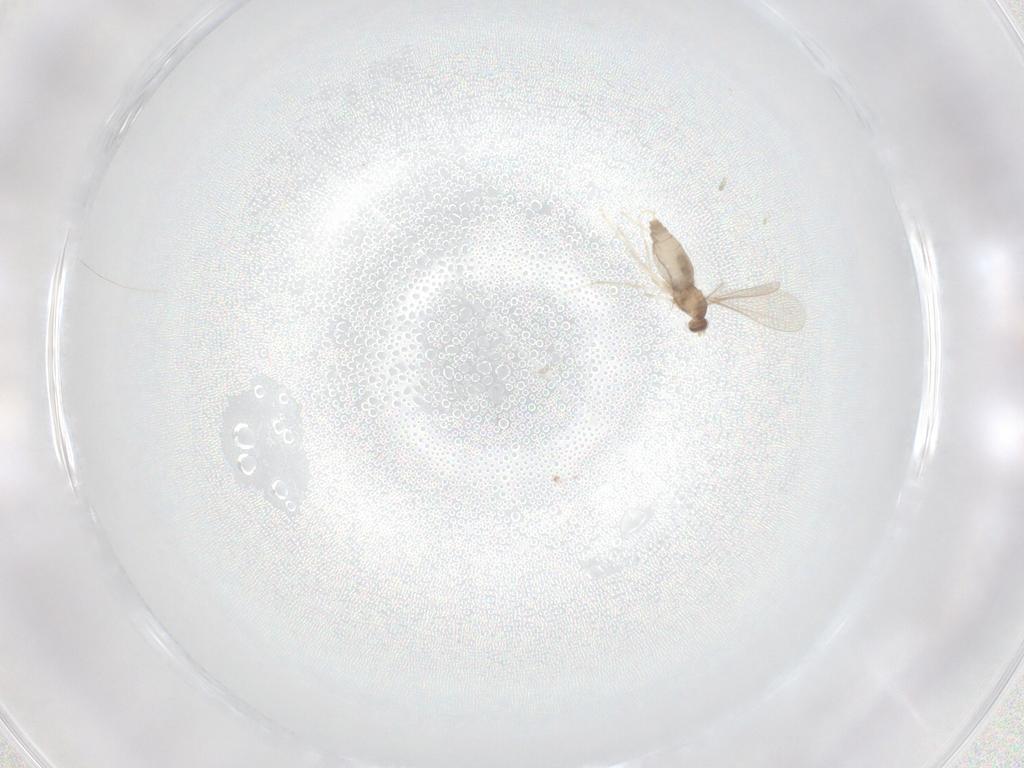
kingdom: Animalia
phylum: Arthropoda
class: Insecta
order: Diptera
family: Cecidomyiidae
